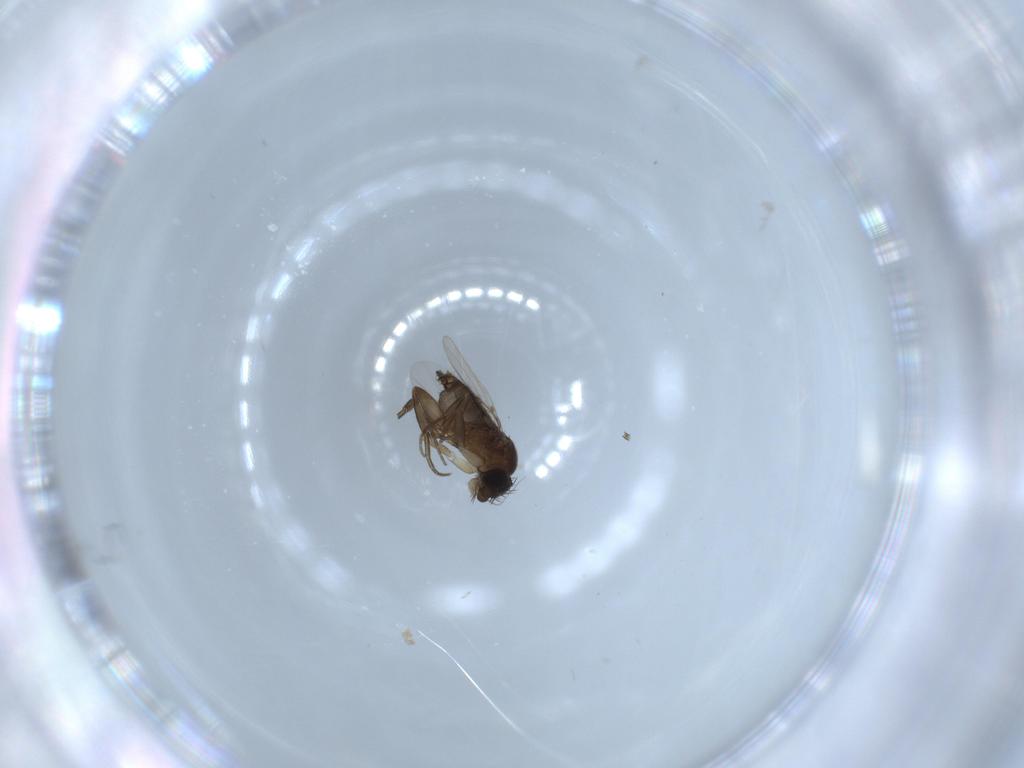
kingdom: Animalia
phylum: Arthropoda
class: Insecta
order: Diptera
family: Phoridae
